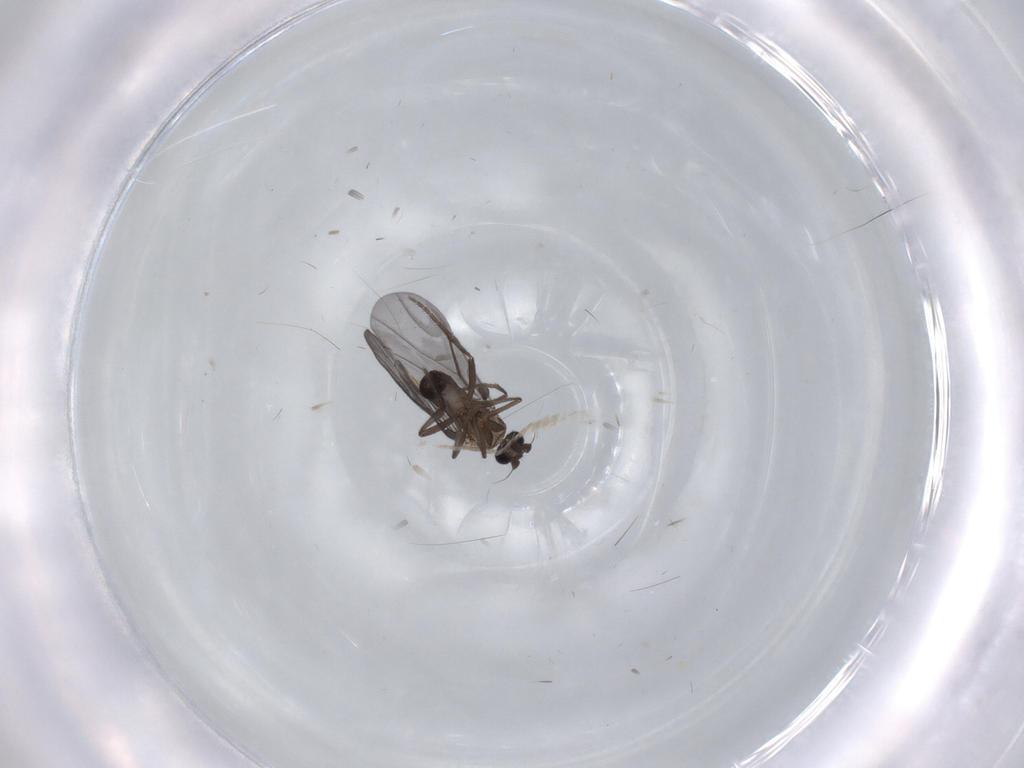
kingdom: Animalia
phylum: Arthropoda
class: Insecta
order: Diptera
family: Phoridae
